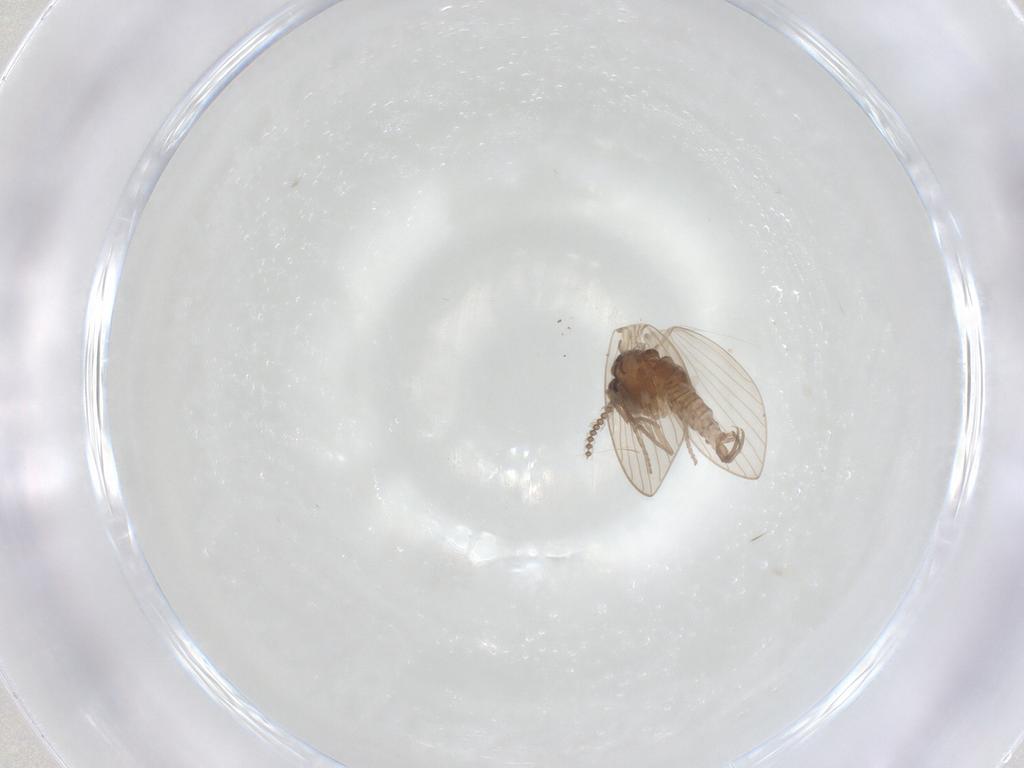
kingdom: Animalia
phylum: Arthropoda
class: Insecta
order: Diptera
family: Psychodidae
